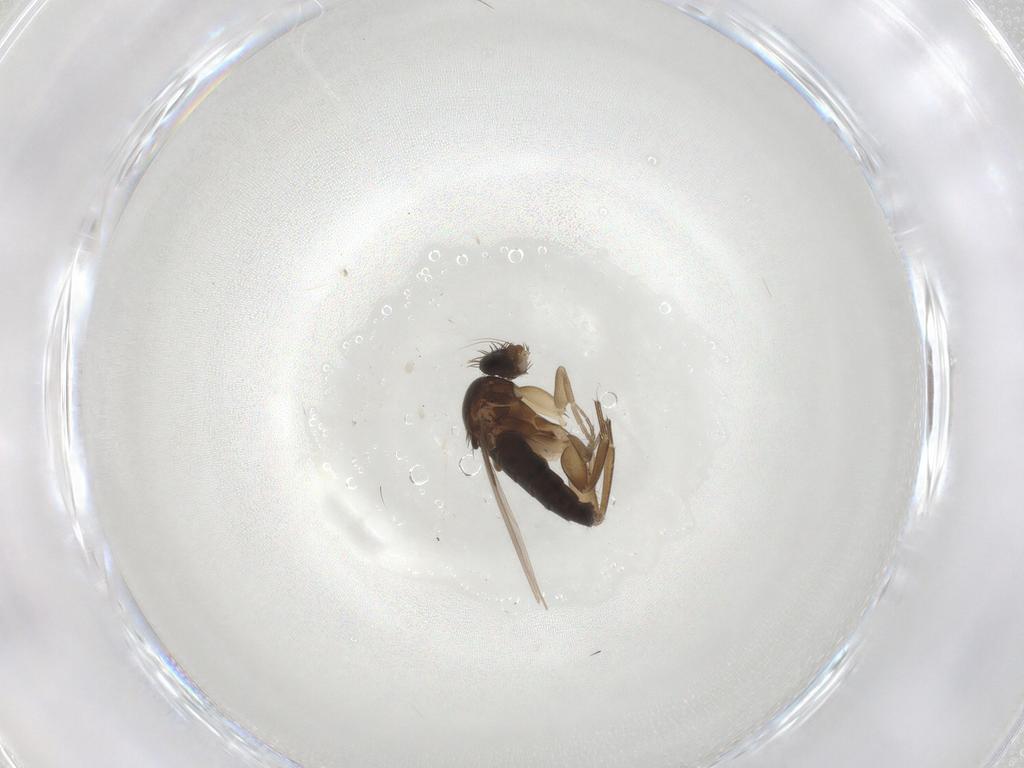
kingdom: Animalia
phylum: Arthropoda
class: Insecta
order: Diptera
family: Phoridae
